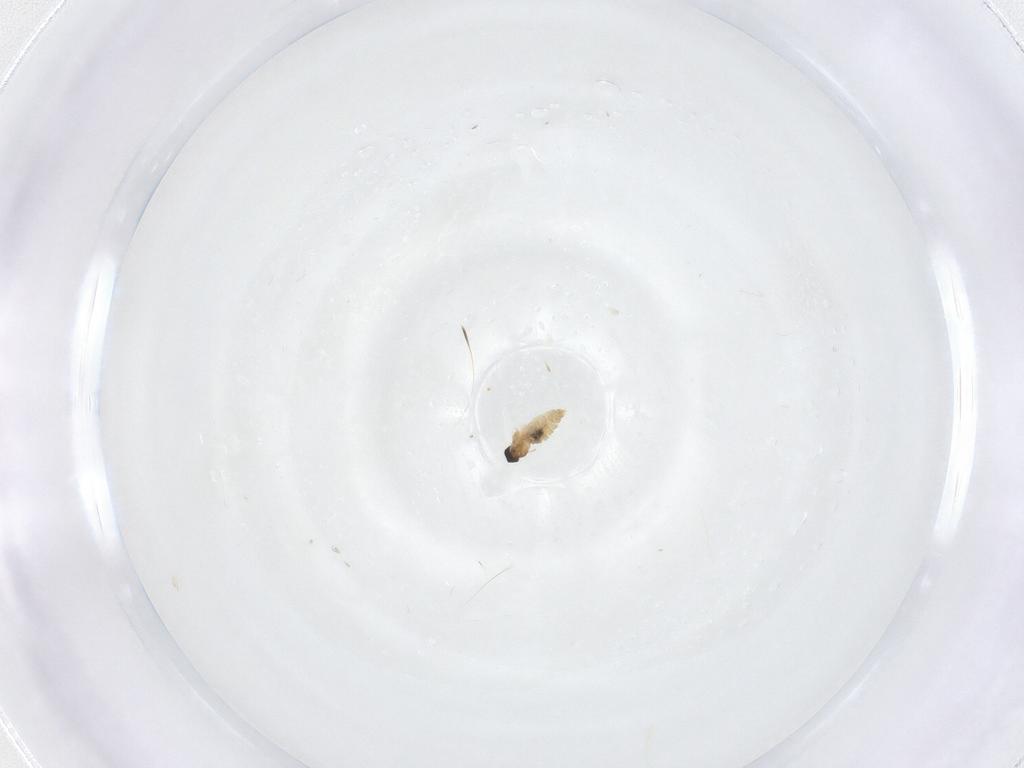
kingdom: Animalia
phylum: Arthropoda
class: Insecta
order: Diptera
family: Cecidomyiidae
